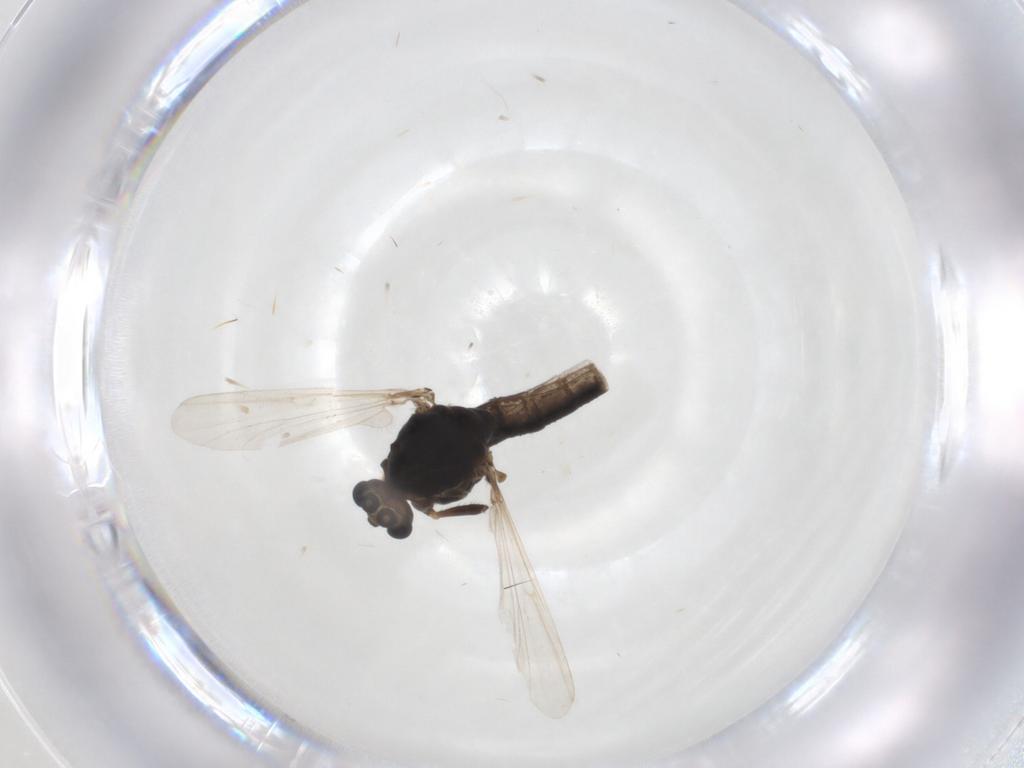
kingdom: Animalia
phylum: Arthropoda
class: Insecta
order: Diptera
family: Chironomidae
